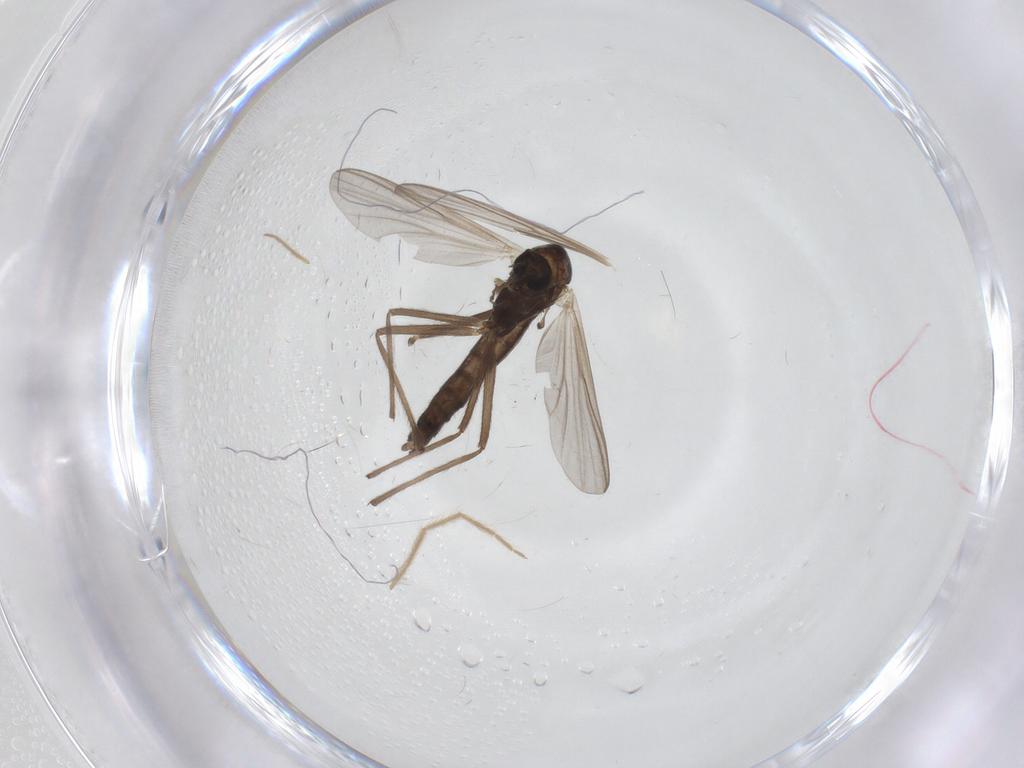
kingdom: Animalia
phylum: Arthropoda
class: Insecta
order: Diptera
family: Chironomidae
